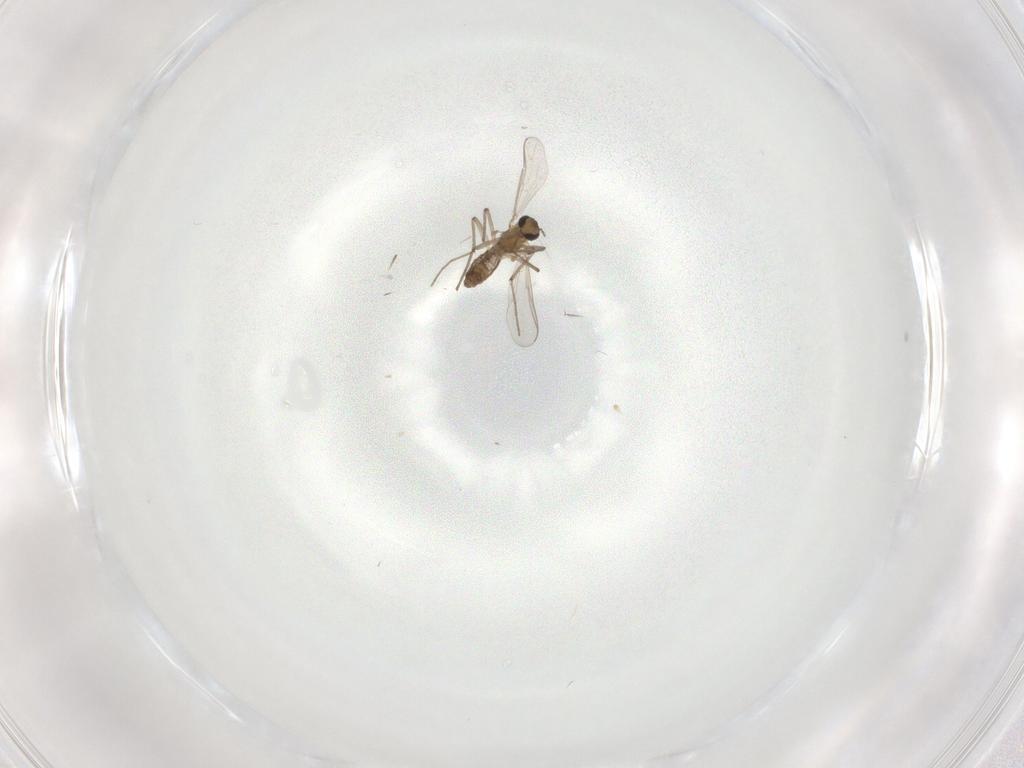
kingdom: Animalia
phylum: Arthropoda
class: Insecta
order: Diptera
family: Chironomidae
